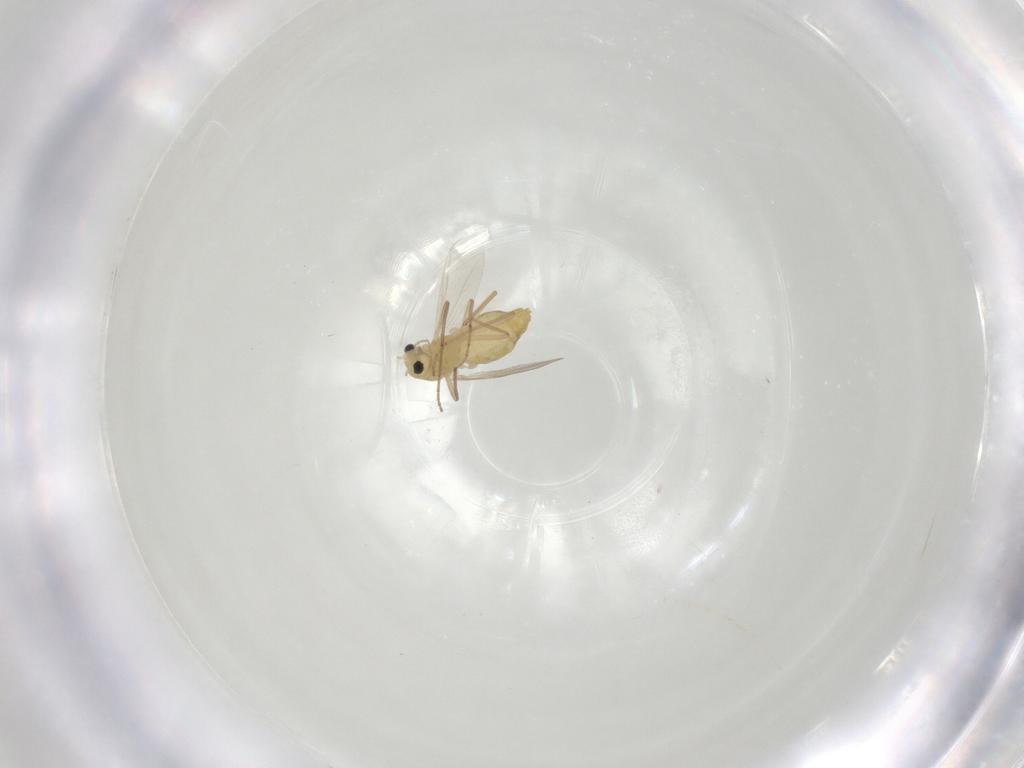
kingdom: Animalia
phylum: Arthropoda
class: Insecta
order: Diptera
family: Chironomidae
